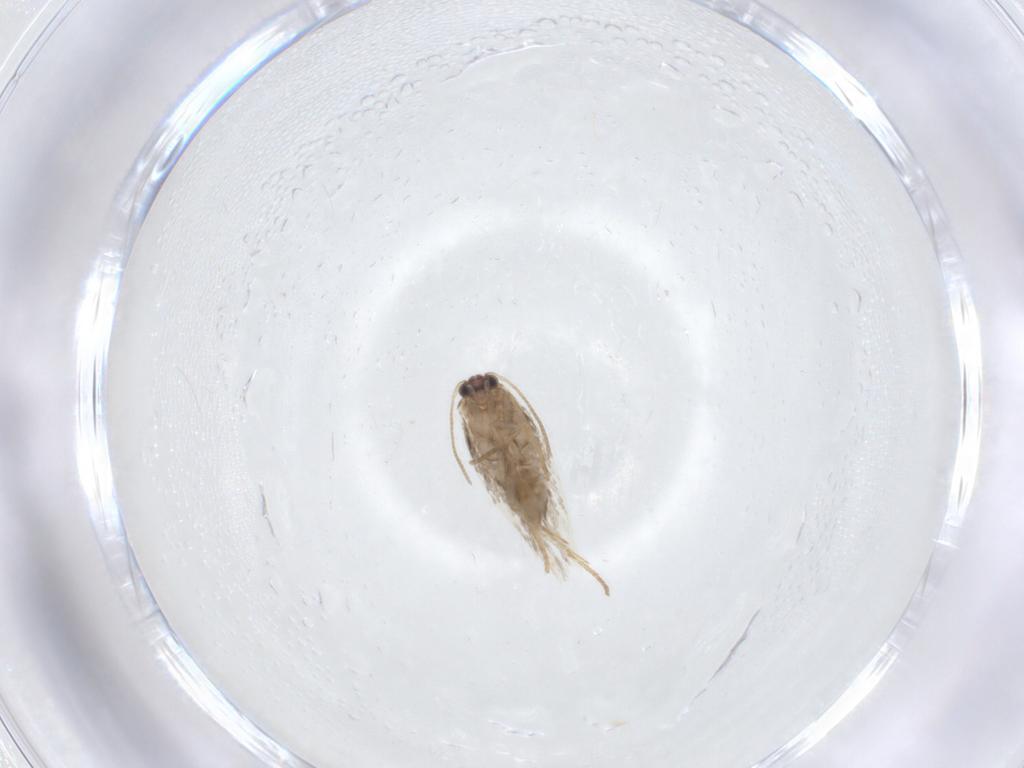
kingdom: Animalia
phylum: Arthropoda
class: Insecta
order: Lepidoptera
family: Nepticulidae
